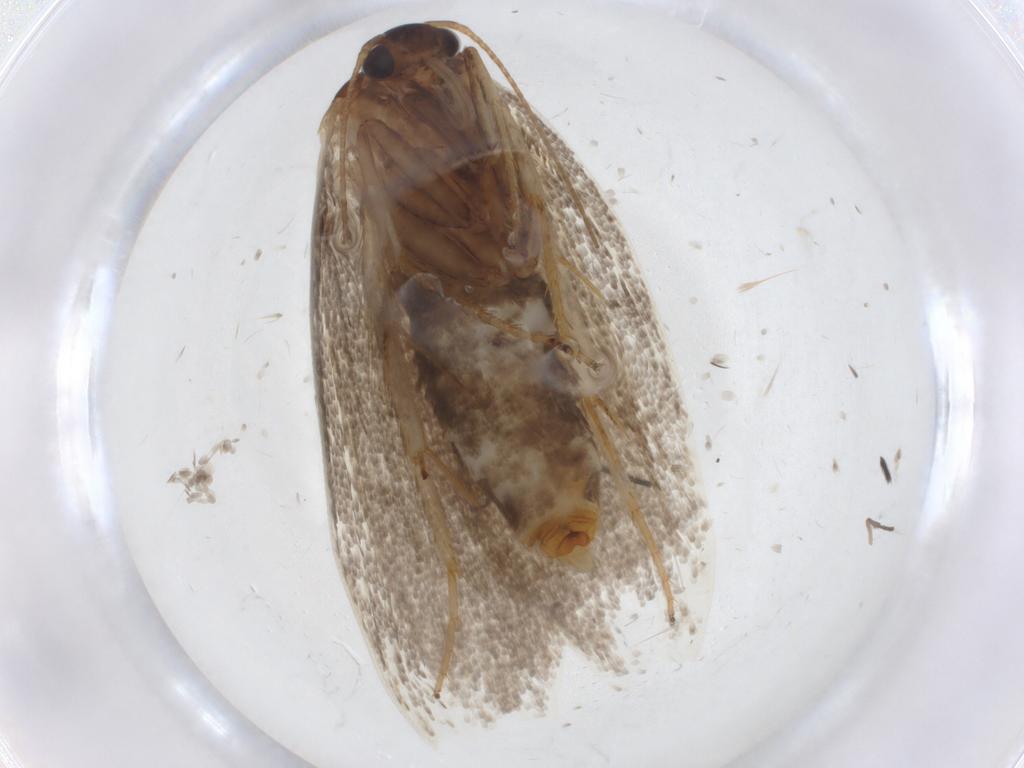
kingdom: Animalia
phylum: Arthropoda
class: Insecta
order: Lepidoptera
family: Oecophoridae
